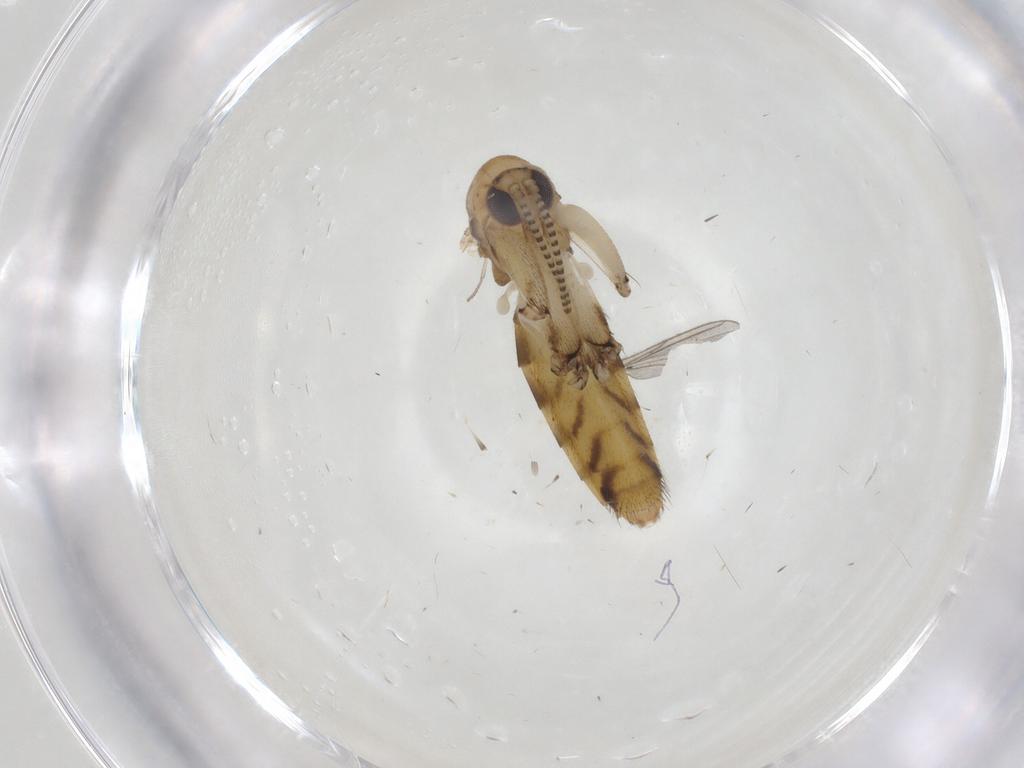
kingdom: Animalia
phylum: Arthropoda
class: Insecta
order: Diptera
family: Mycetophilidae
